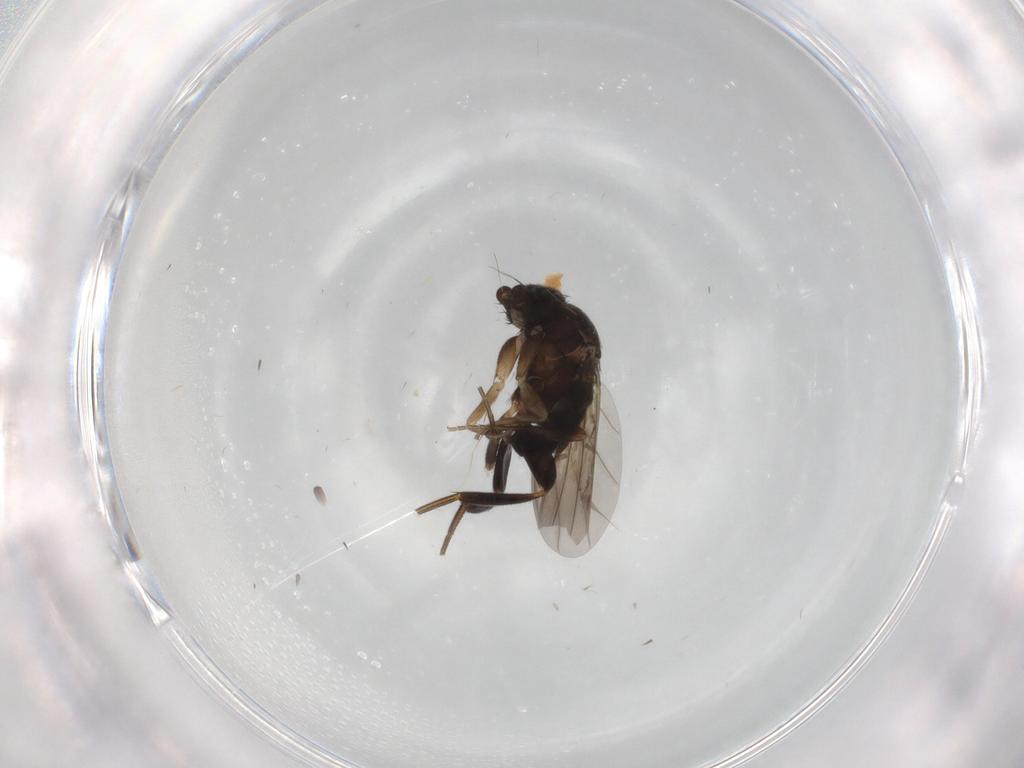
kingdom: Animalia
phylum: Arthropoda
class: Insecta
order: Diptera
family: Phoridae
